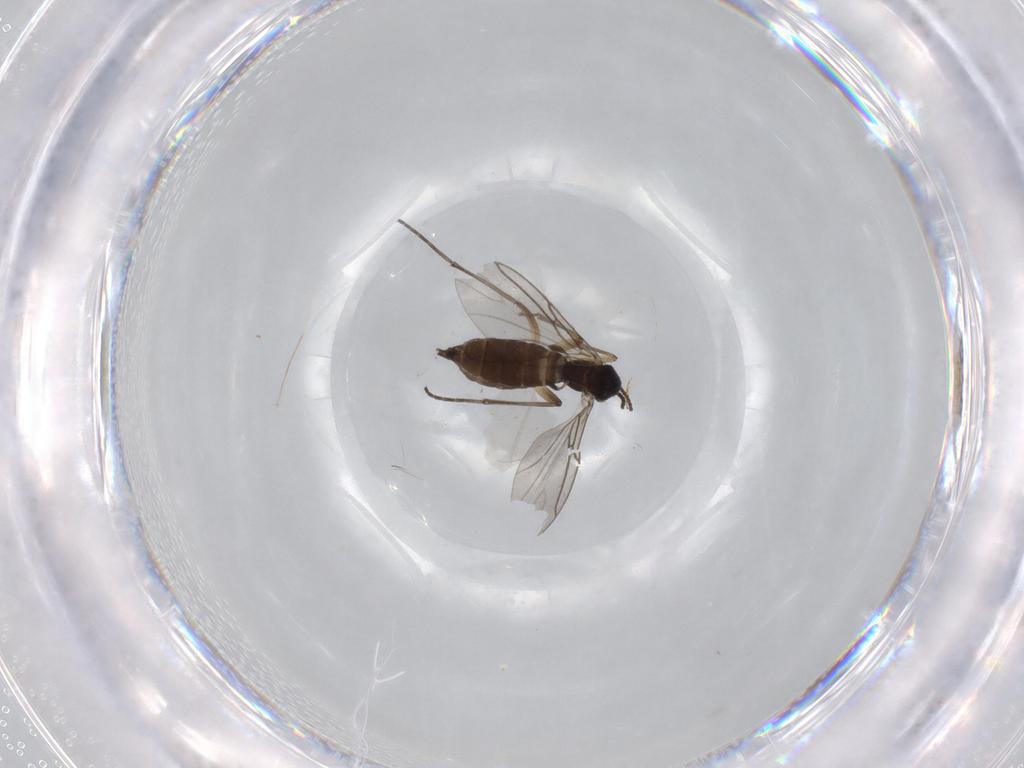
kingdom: Animalia
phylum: Arthropoda
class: Insecta
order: Diptera
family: Sciaridae
